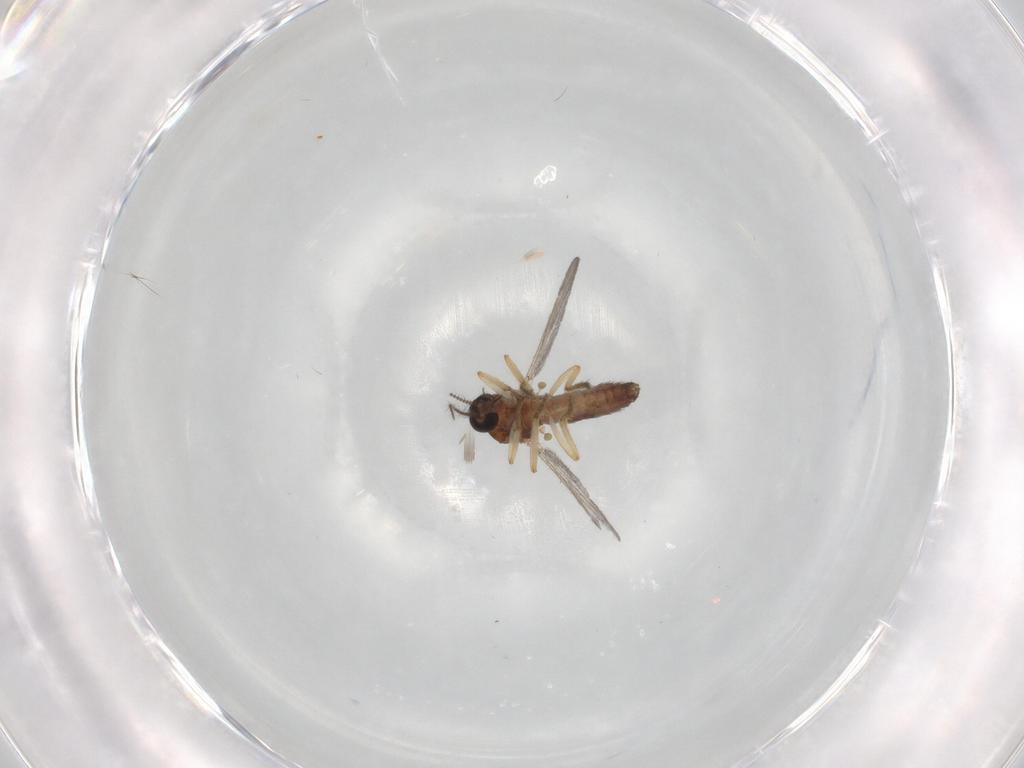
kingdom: Animalia
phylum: Arthropoda
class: Insecta
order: Diptera
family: Ceratopogonidae
